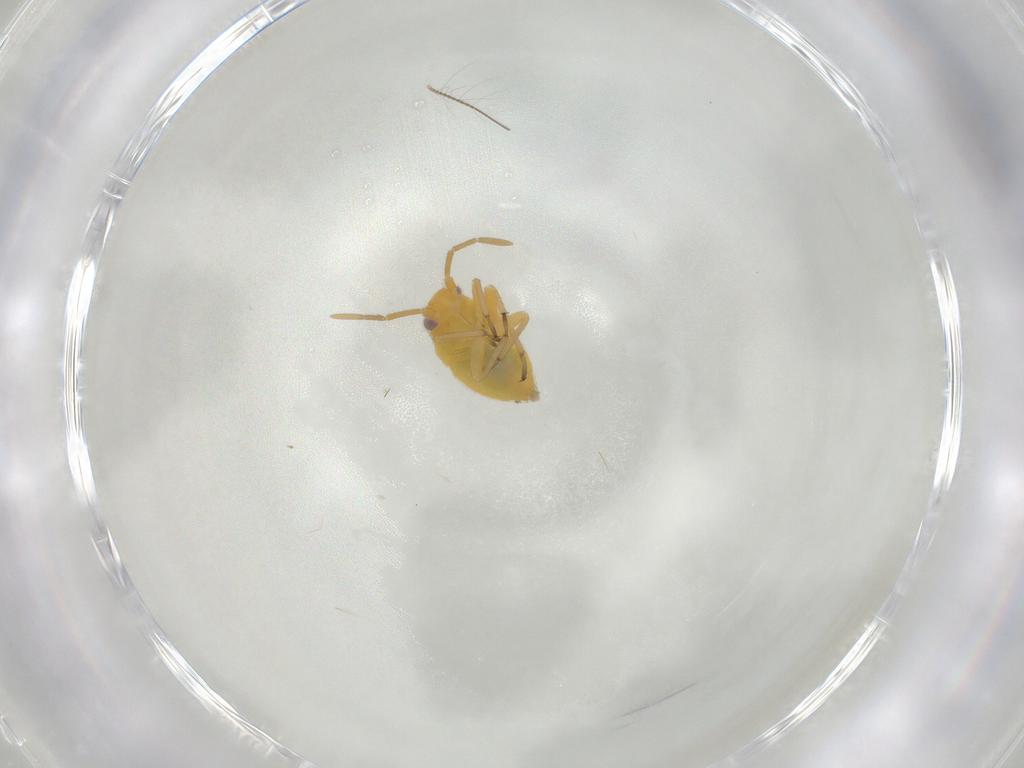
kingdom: Animalia
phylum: Arthropoda
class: Insecta
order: Hemiptera
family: Miridae
